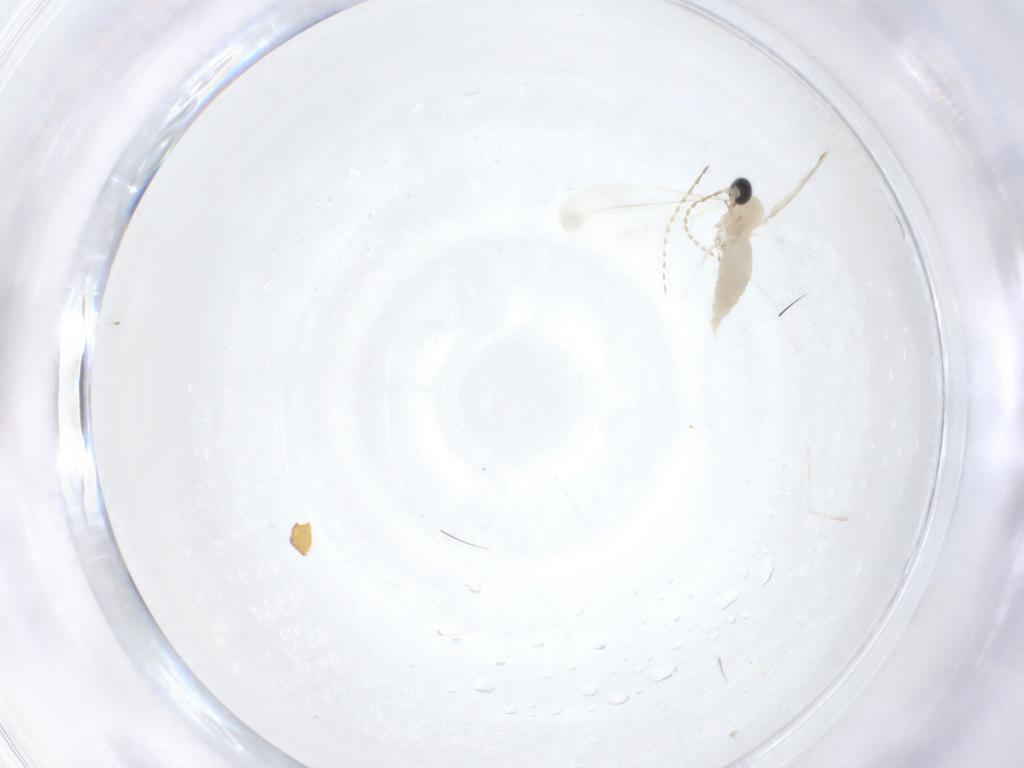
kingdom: Animalia
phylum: Arthropoda
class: Insecta
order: Diptera
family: Cecidomyiidae
